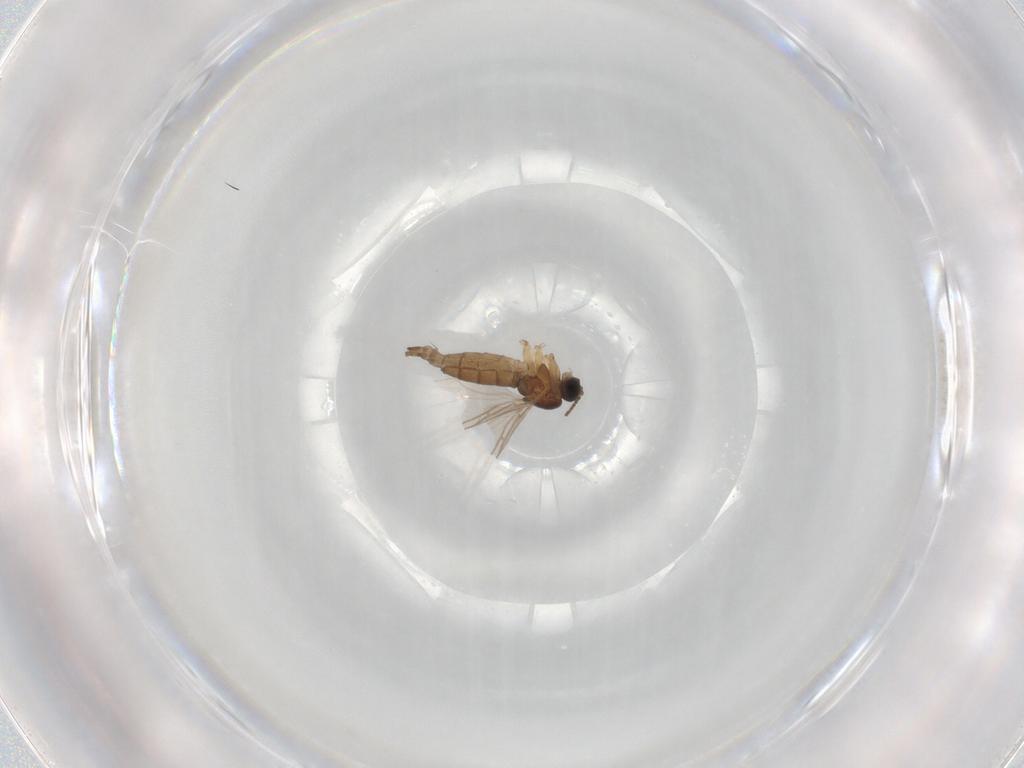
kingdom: Animalia
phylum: Arthropoda
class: Insecta
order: Diptera
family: Sciaridae
